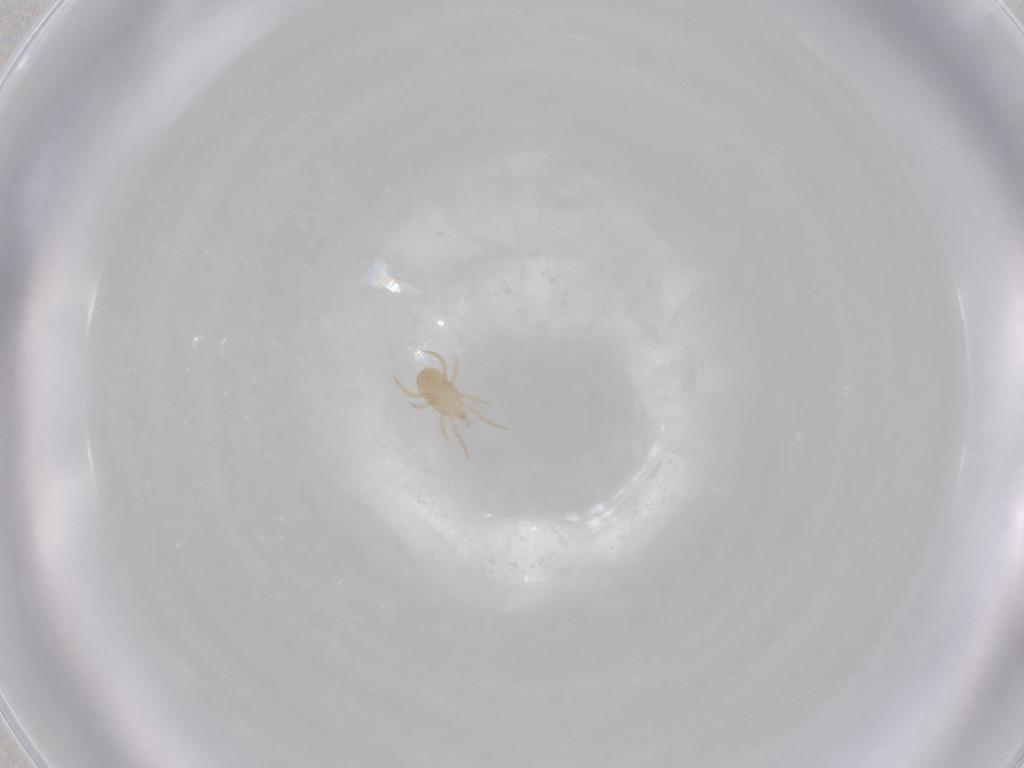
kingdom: Animalia
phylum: Arthropoda
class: Arachnida
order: Mesostigmata
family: Blattisociidae
